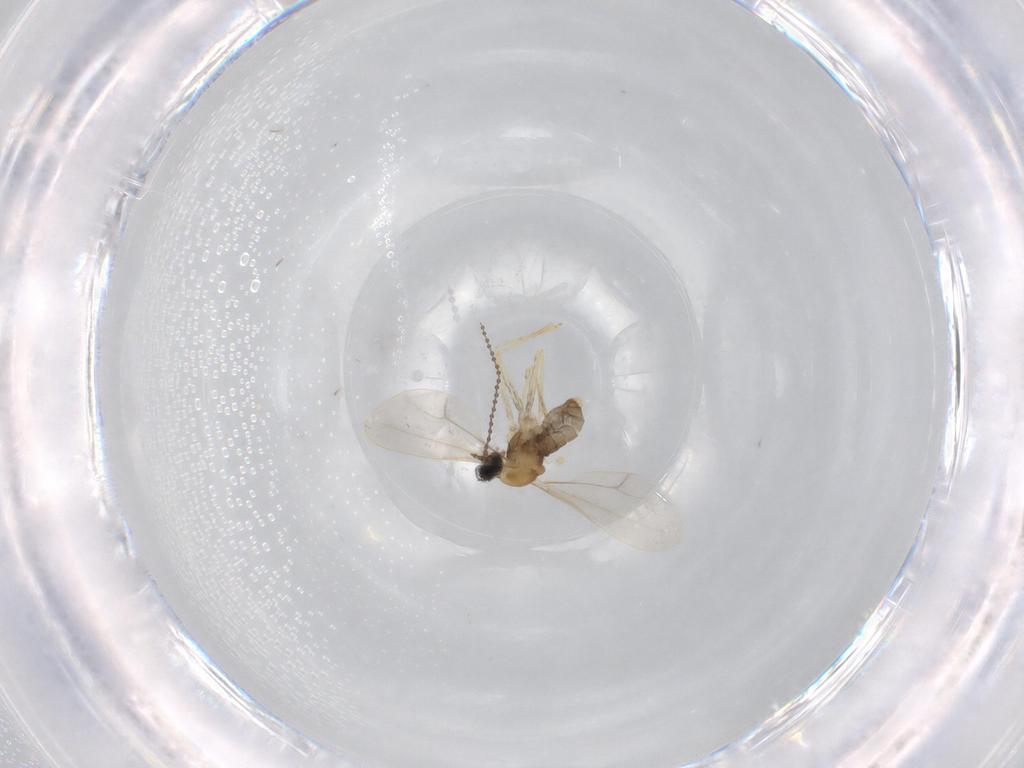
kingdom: Animalia
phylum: Arthropoda
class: Insecta
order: Diptera
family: Cecidomyiidae
